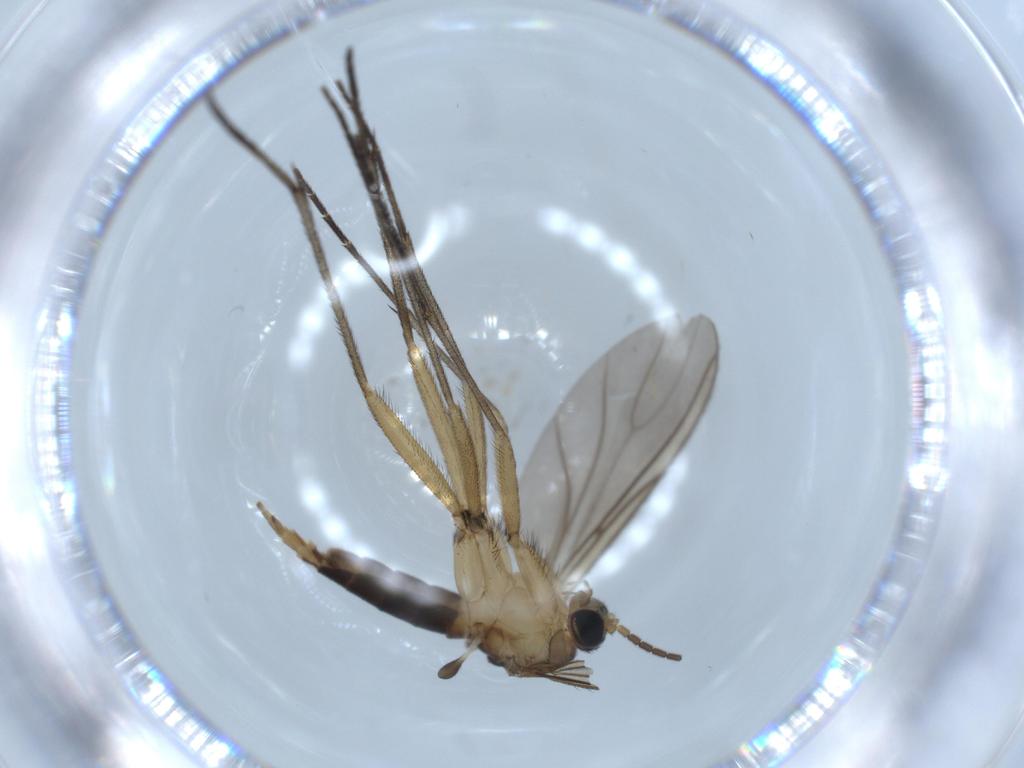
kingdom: Animalia
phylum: Arthropoda
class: Insecta
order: Diptera
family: Sciaridae
